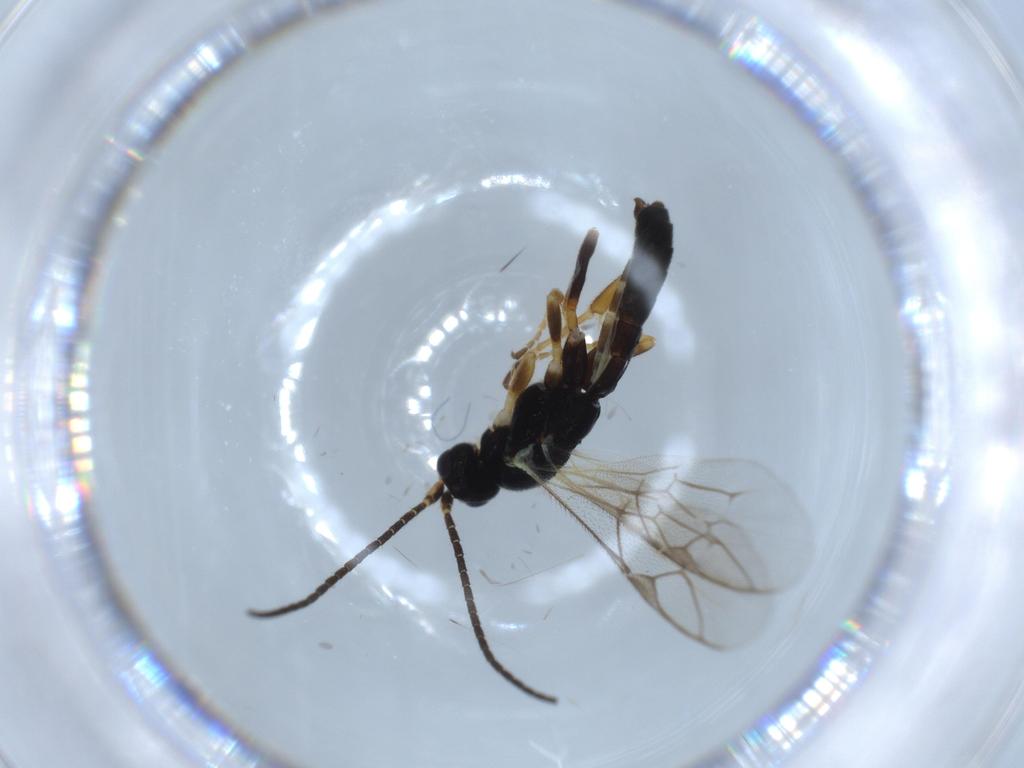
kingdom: Animalia
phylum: Arthropoda
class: Insecta
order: Hymenoptera
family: Ichneumonidae
